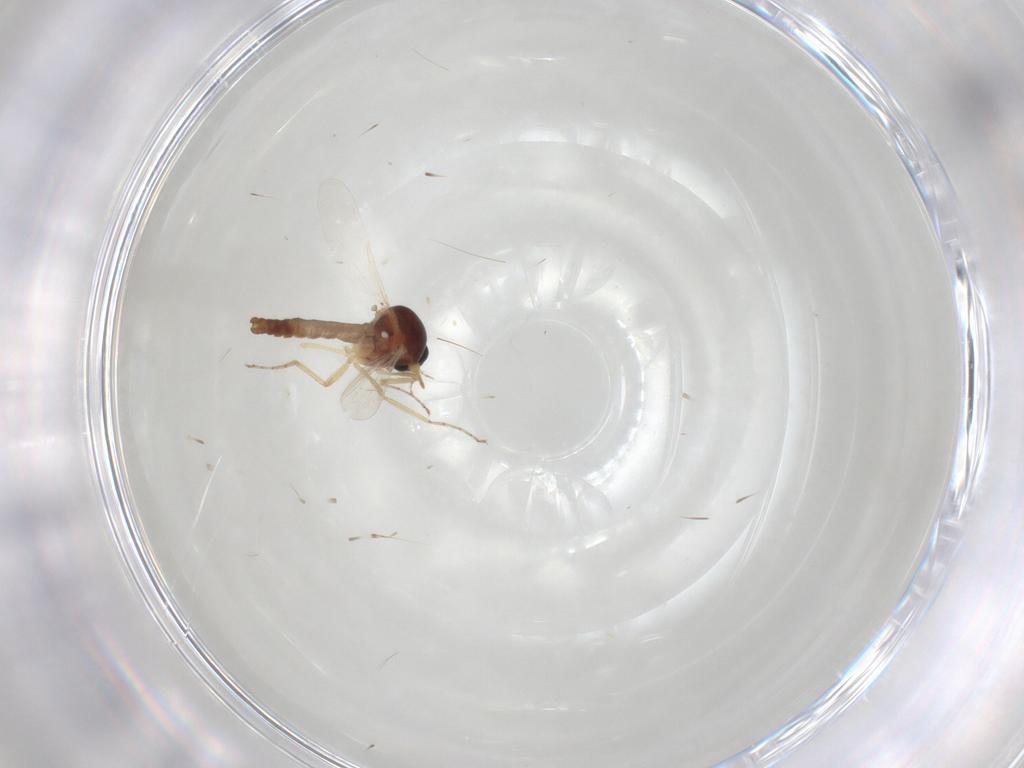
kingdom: Animalia
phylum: Arthropoda
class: Insecta
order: Diptera
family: Ceratopogonidae
